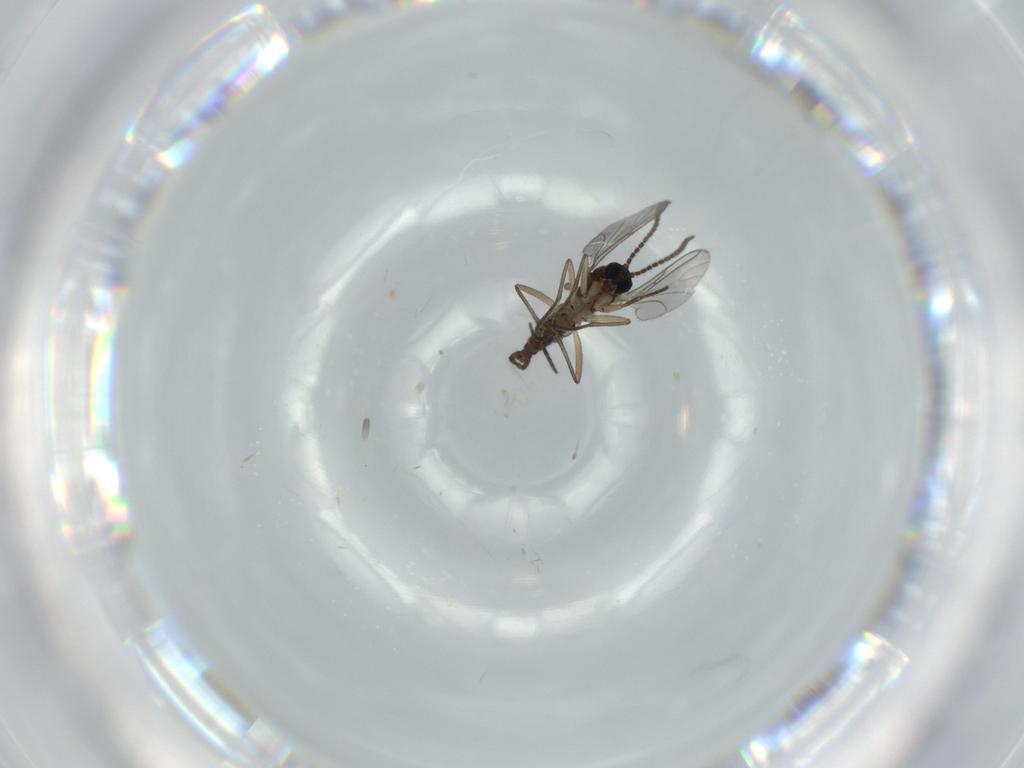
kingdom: Animalia
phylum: Arthropoda
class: Insecta
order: Diptera
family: Sciaridae
